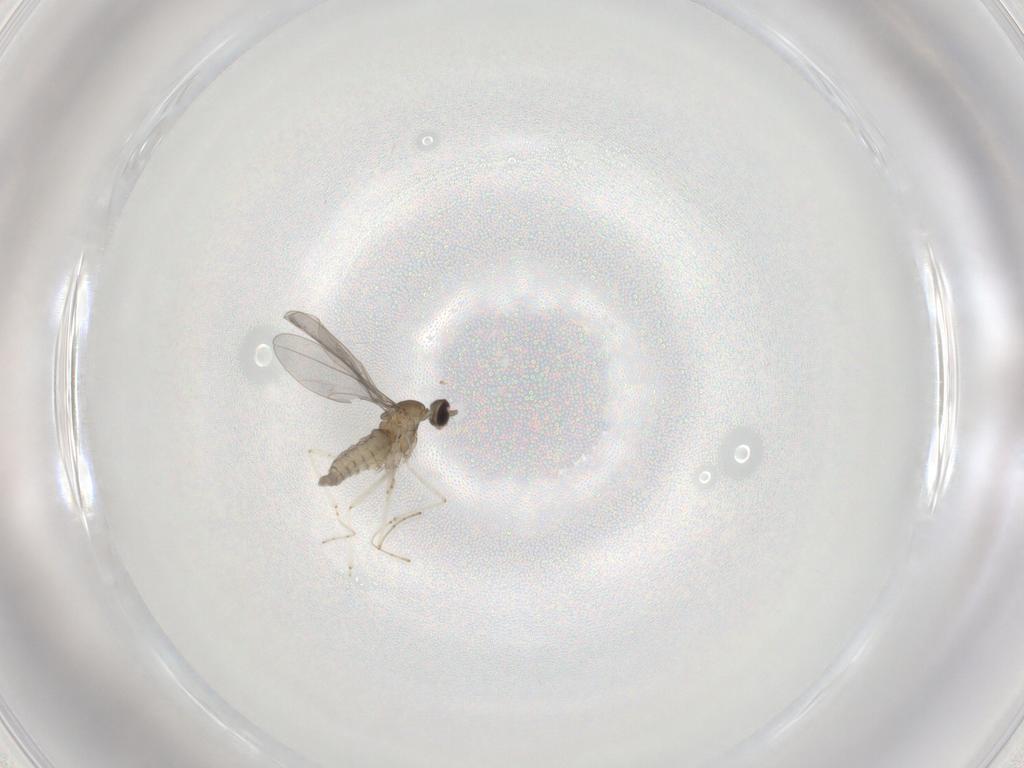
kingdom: Animalia
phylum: Arthropoda
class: Insecta
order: Diptera
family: Cecidomyiidae
